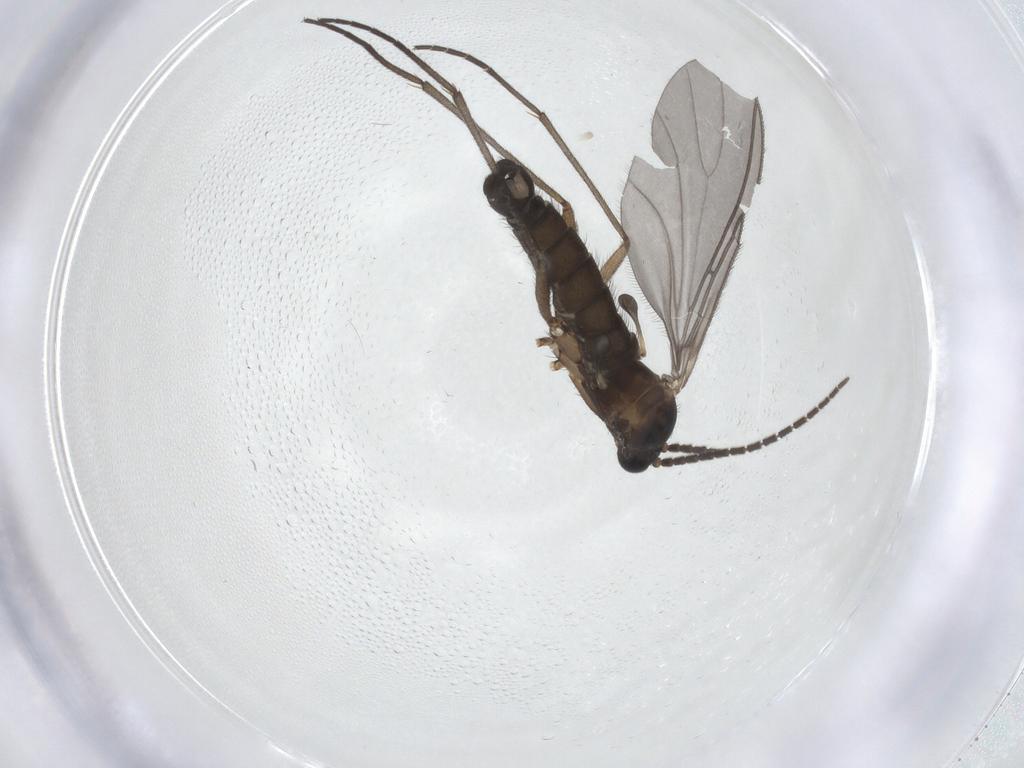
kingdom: Animalia
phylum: Arthropoda
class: Insecta
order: Diptera
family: Sciaridae
